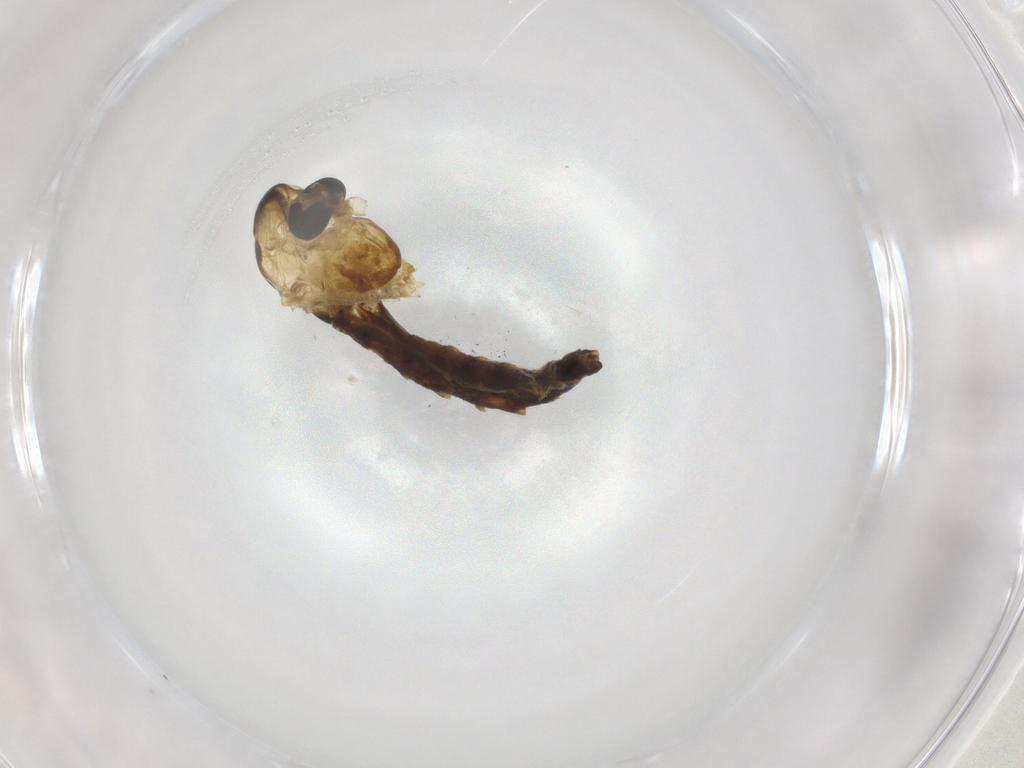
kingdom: Animalia
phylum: Arthropoda
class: Insecta
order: Diptera
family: Chironomidae
